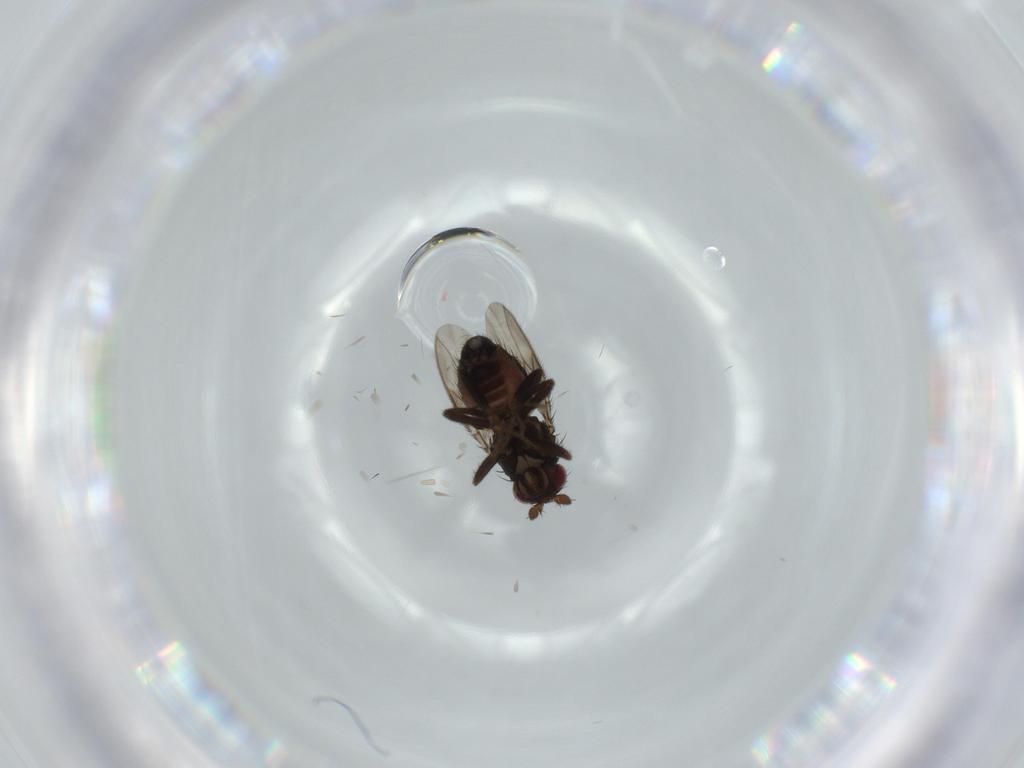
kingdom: Animalia
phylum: Arthropoda
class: Insecta
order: Diptera
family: Sphaeroceridae
